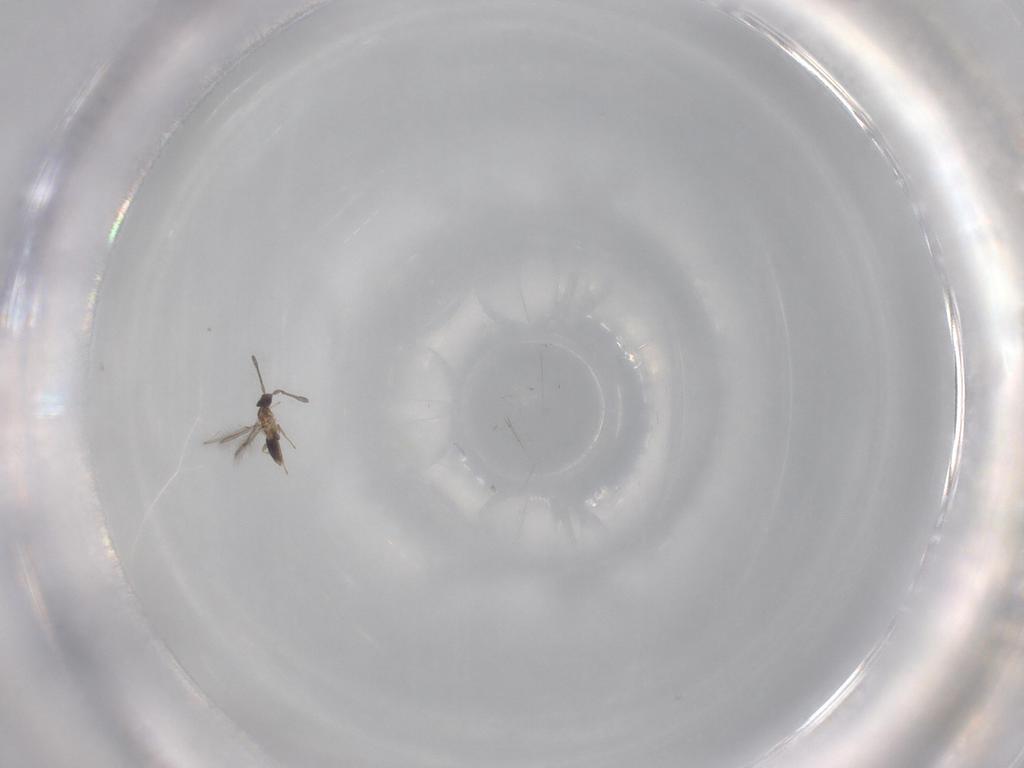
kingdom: Animalia
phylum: Arthropoda
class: Insecta
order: Hymenoptera
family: Mymaridae
